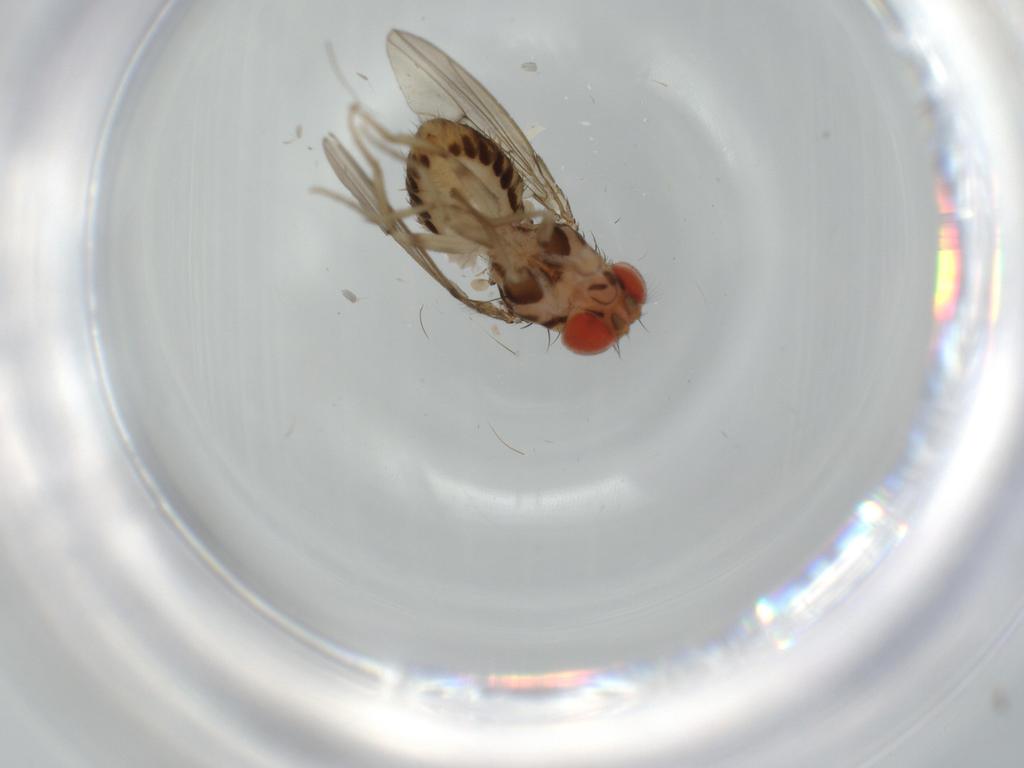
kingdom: Animalia
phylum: Arthropoda
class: Insecta
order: Diptera
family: Drosophilidae
